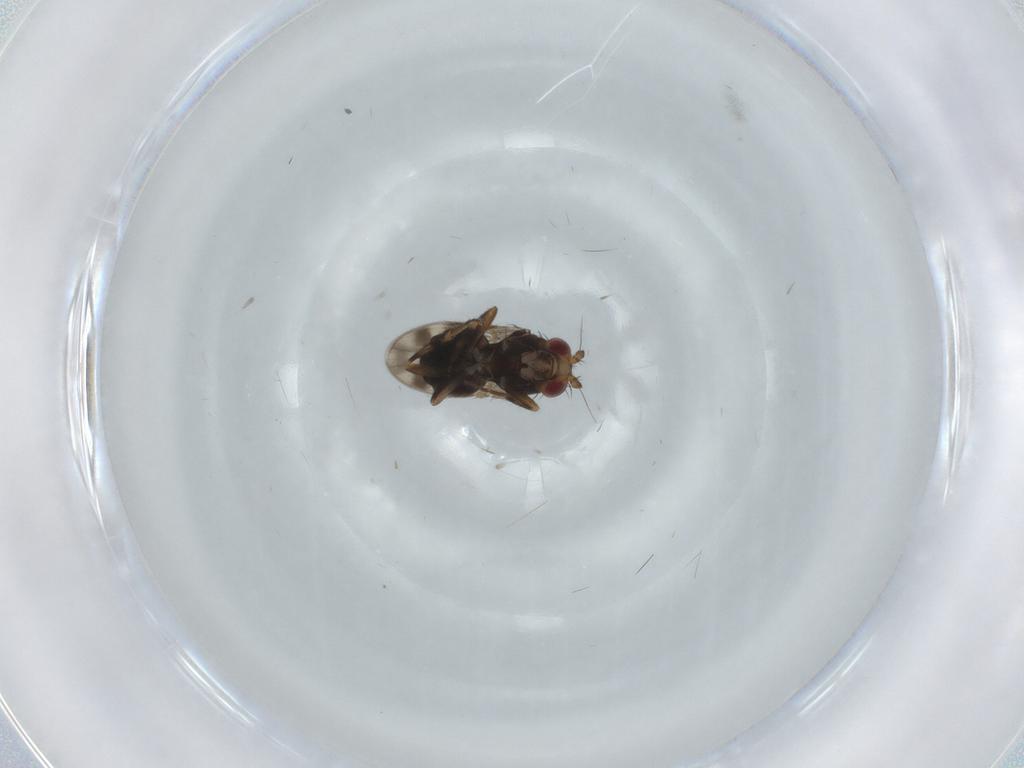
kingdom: Animalia
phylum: Arthropoda
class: Insecta
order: Diptera
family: Sphaeroceridae
